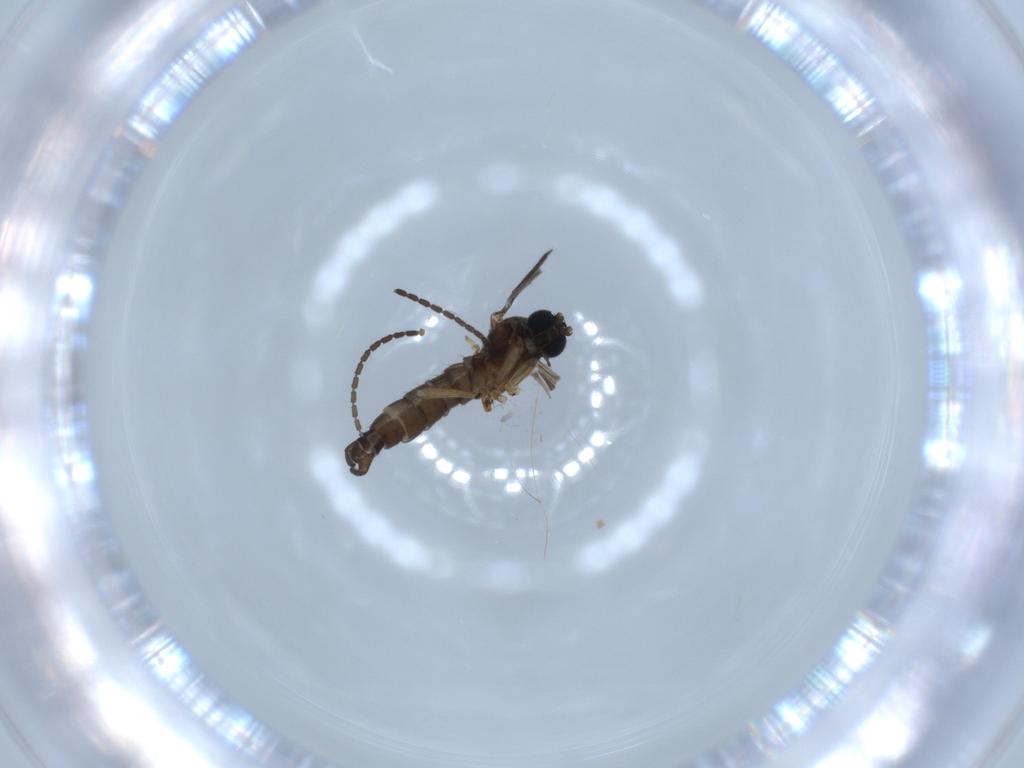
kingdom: Animalia
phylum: Arthropoda
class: Insecta
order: Diptera
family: Sciaridae
